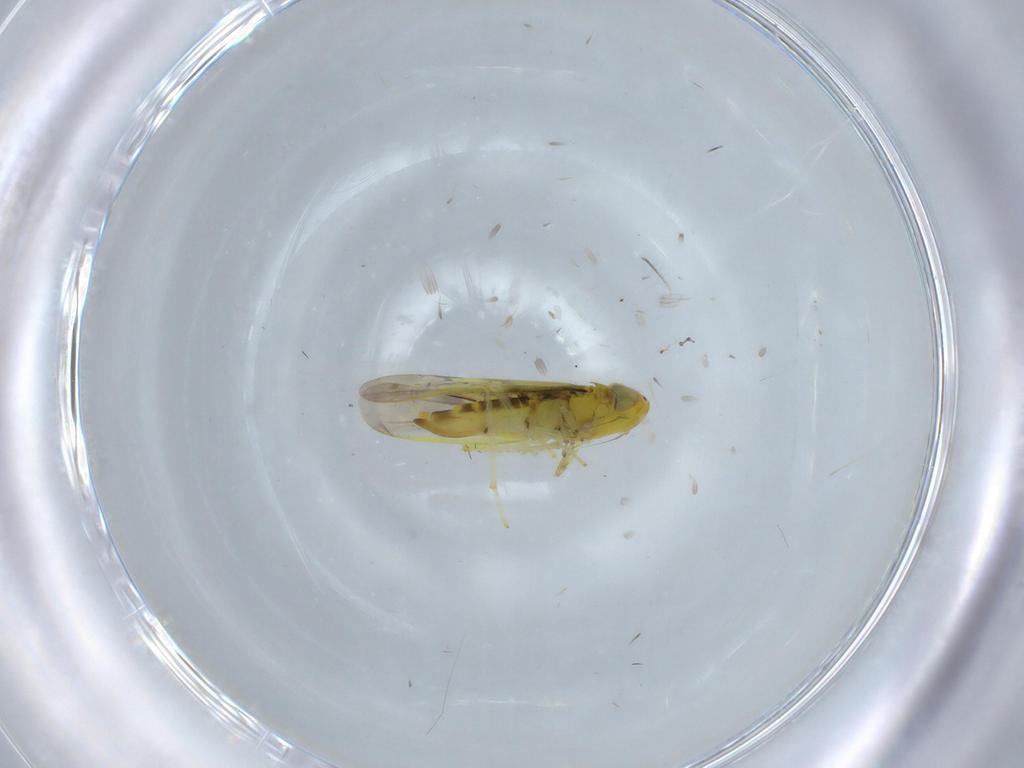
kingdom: Animalia
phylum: Arthropoda
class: Insecta
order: Hemiptera
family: Cicadellidae
